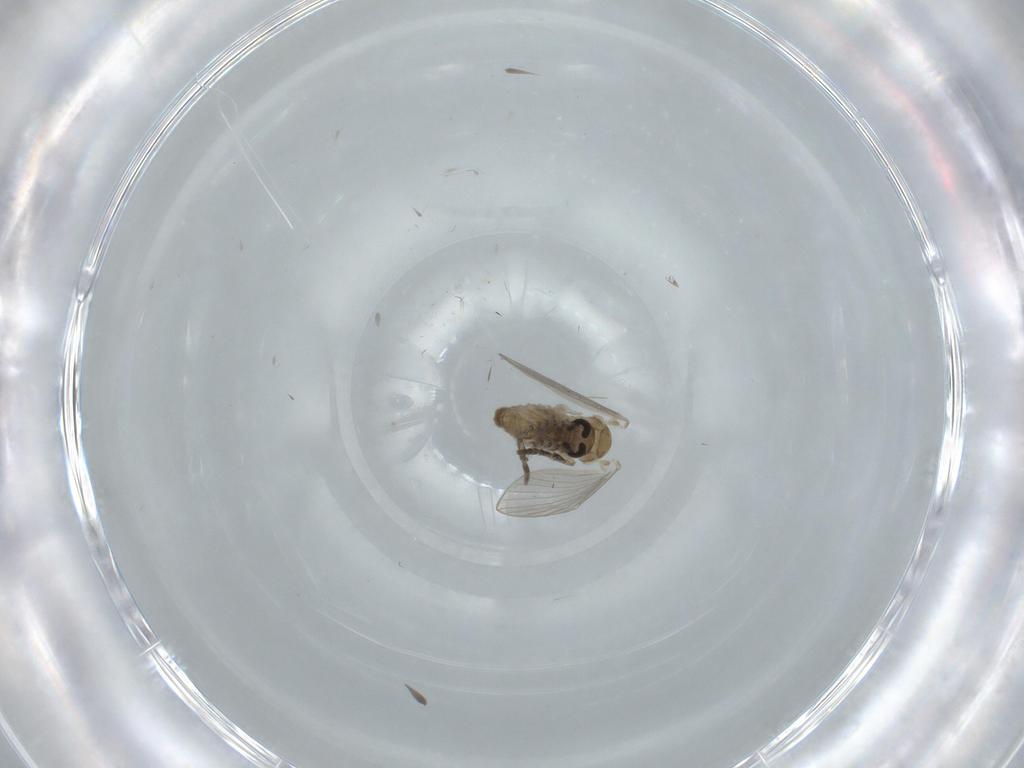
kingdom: Animalia
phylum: Arthropoda
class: Insecta
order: Diptera
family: Psychodidae
